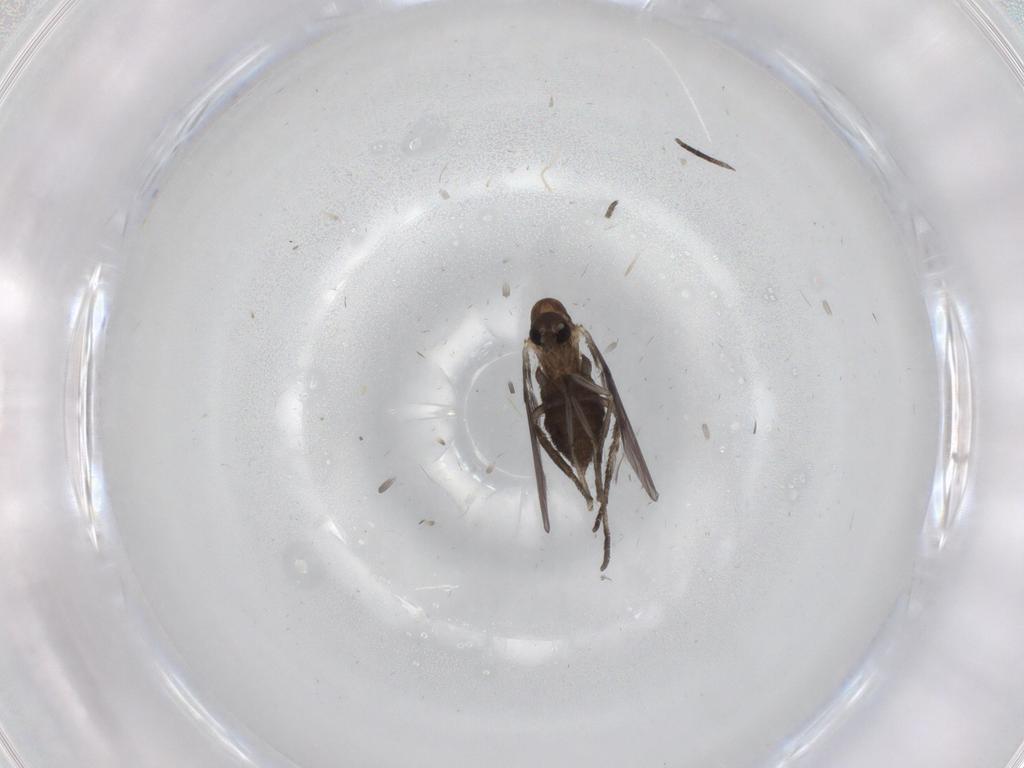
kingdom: Animalia
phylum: Arthropoda
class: Insecta
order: Diptera
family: Psychodidae
